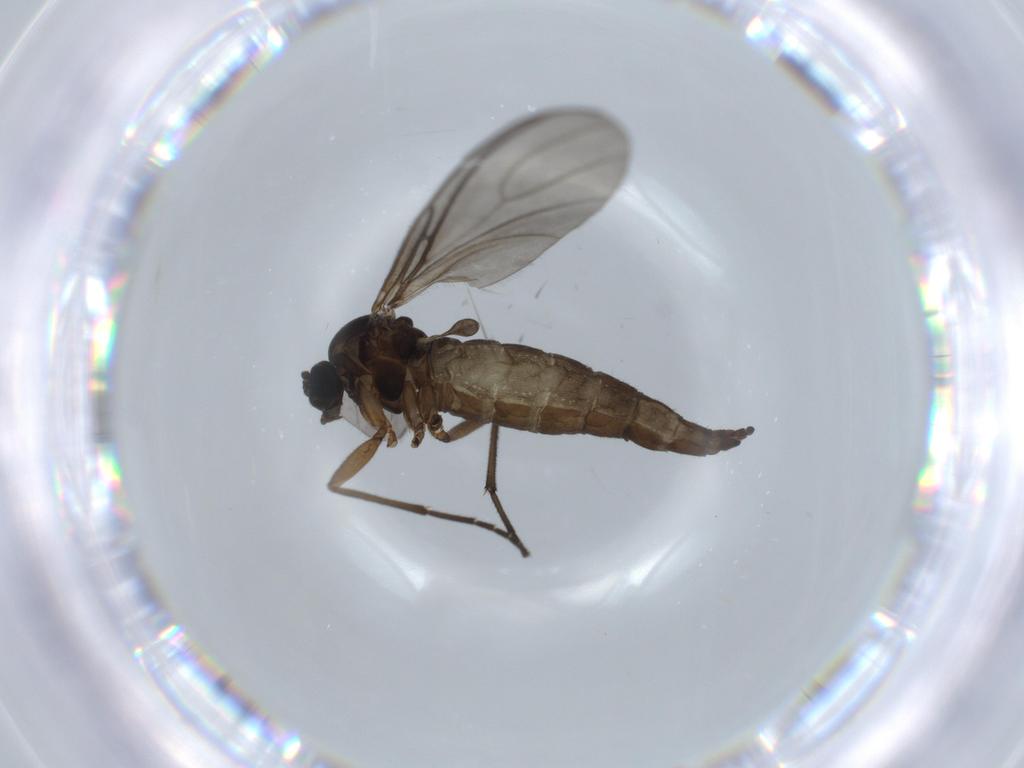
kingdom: Animalia
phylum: Arthropoda
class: Insecta
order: Diptera
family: Sciaridae
